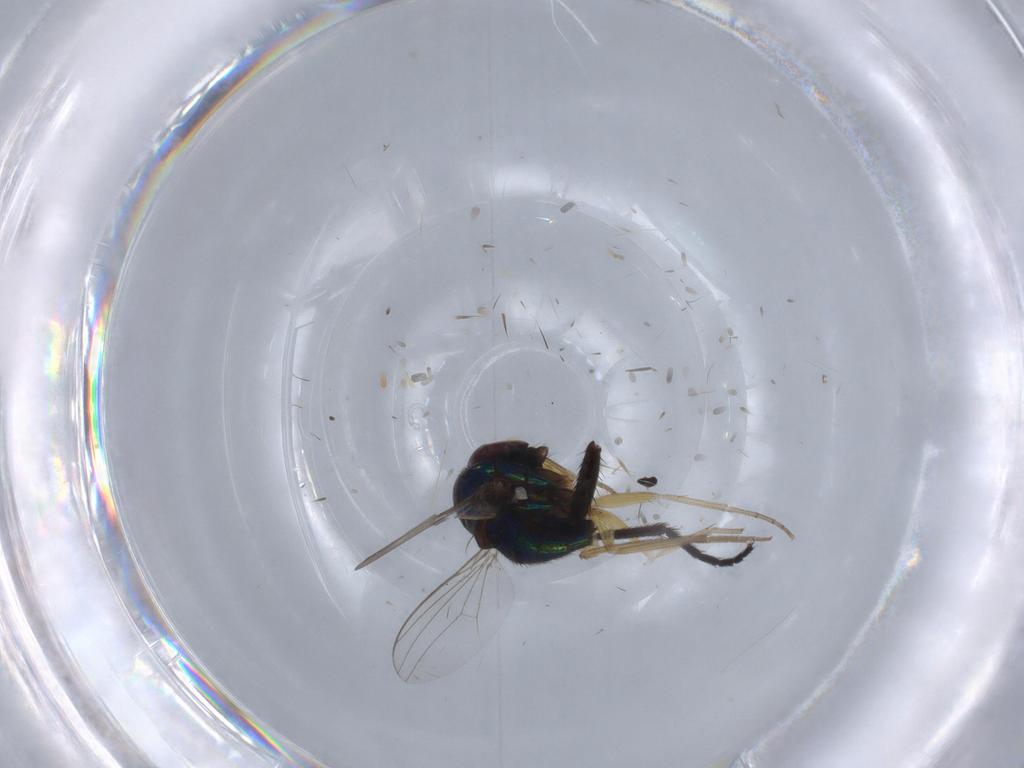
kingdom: Animalia
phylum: Arthropoda
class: Insecta
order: Diptera
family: Dolichopodidae
